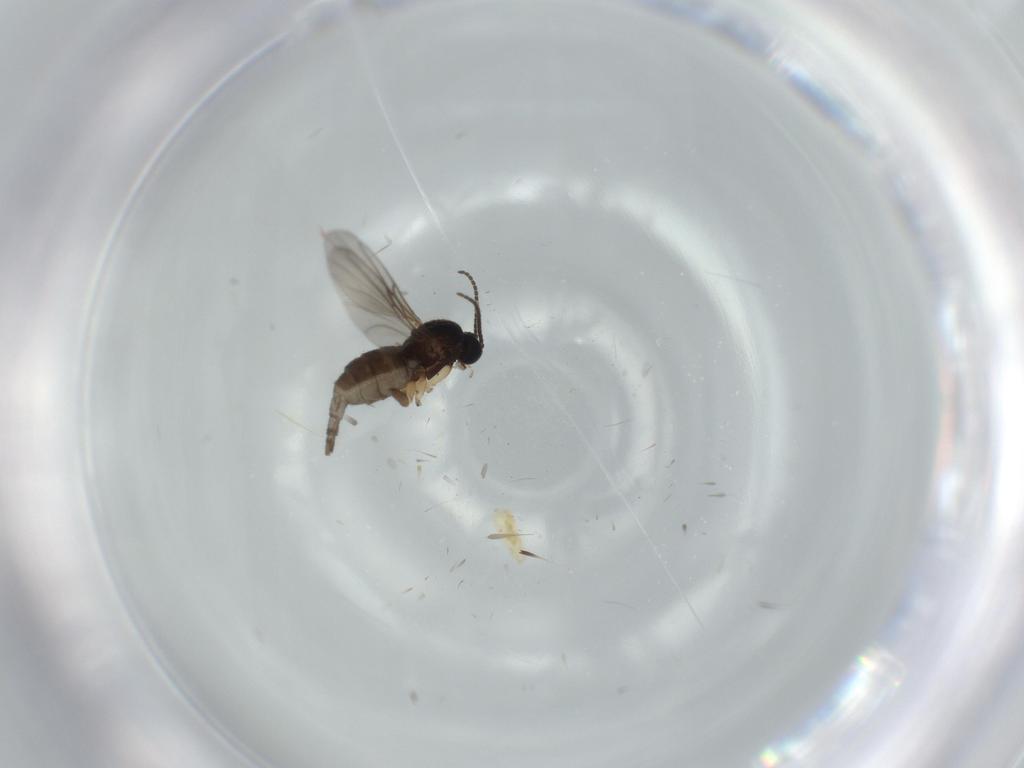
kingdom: Animalia
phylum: Arthropoda
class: Insecta
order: Diptera
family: Sciaridae
